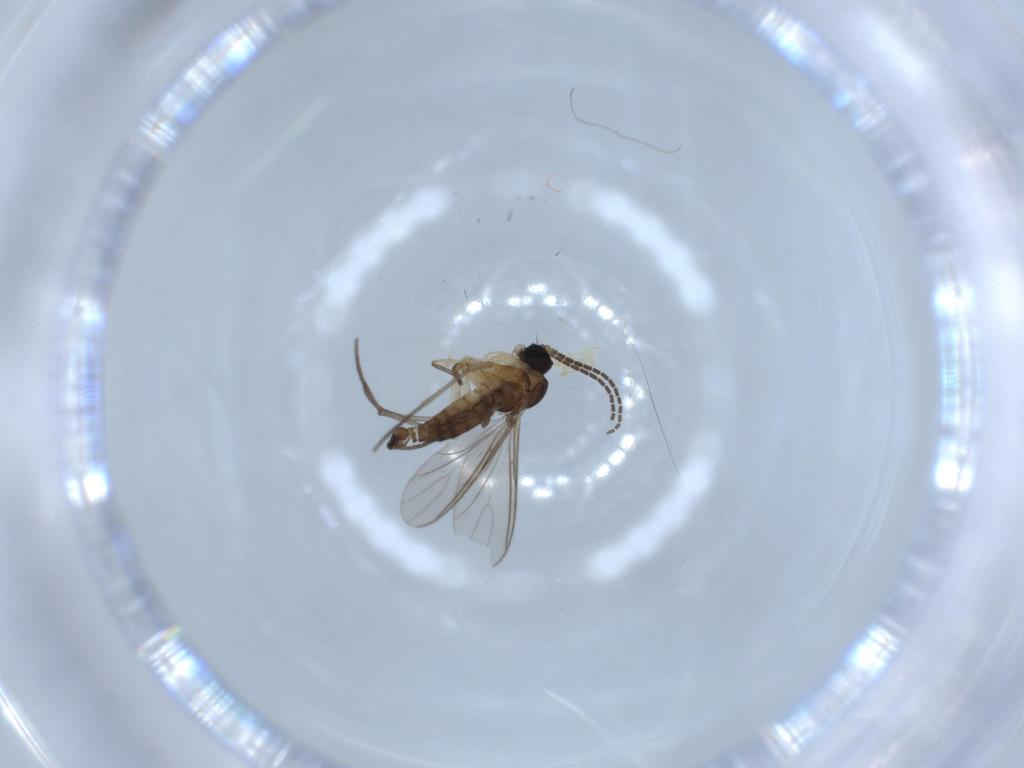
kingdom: Animalia
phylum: Arthropoda
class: Insecta
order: Diptera
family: Sciaridae
